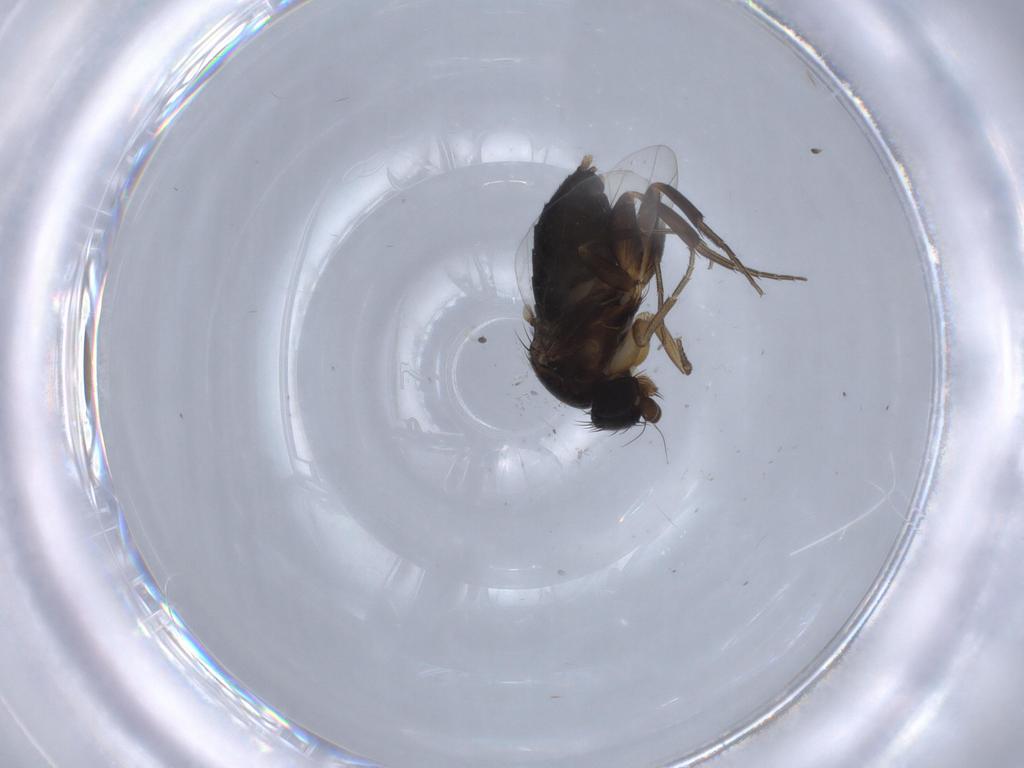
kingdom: Animalia
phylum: Arthropoda
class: Insecta
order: Diptera
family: Phoridae
